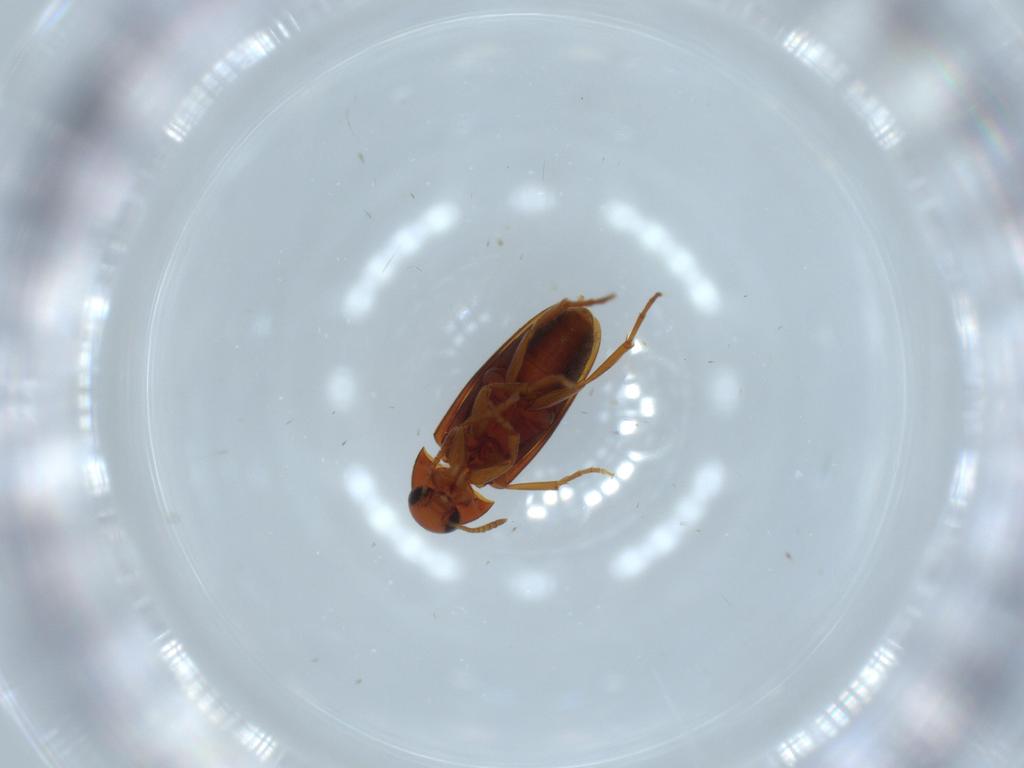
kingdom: Animalia
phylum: Arthropoda
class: Insecta
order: Coleoptera
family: Scraptiidae
